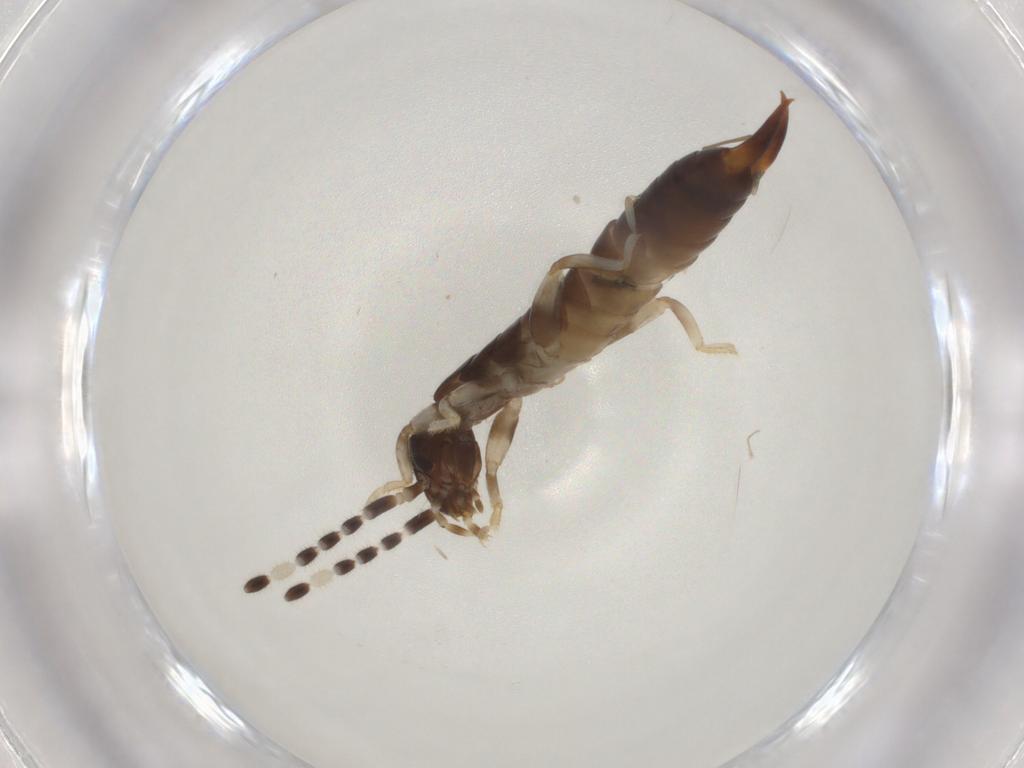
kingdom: Animalia
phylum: Arthropoda
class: Insecta
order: Dermaptera
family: Anisolabididae
